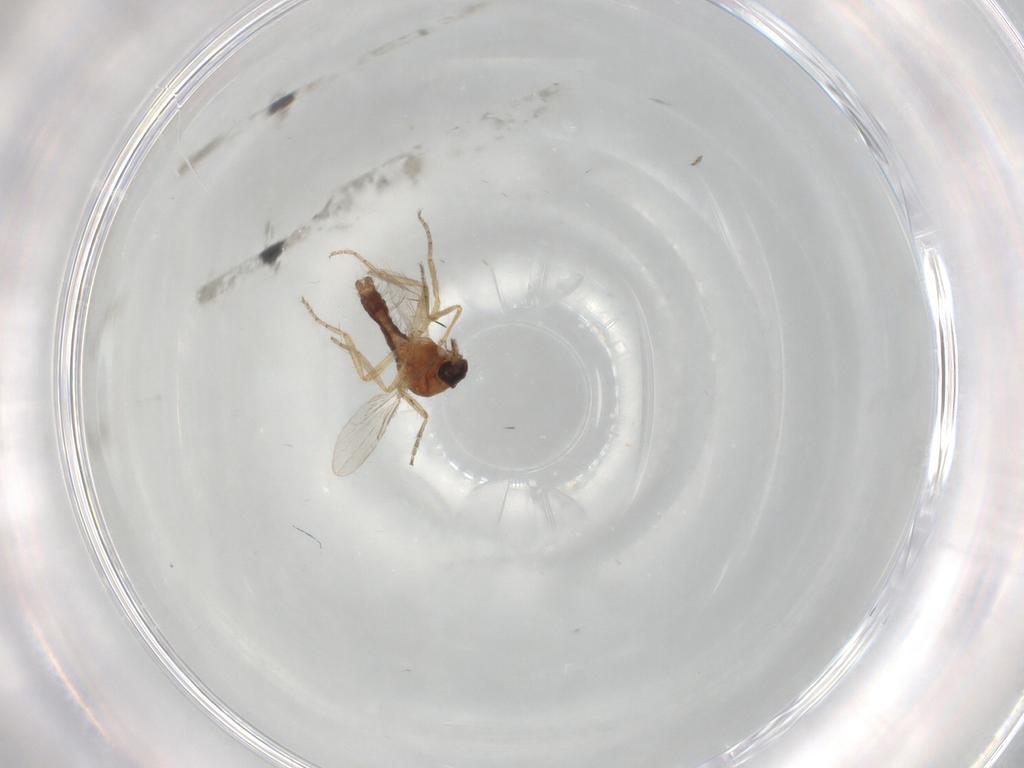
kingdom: Animalia
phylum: Arthropoda
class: Insecta
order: Diptera
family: Ceratopogonidae
